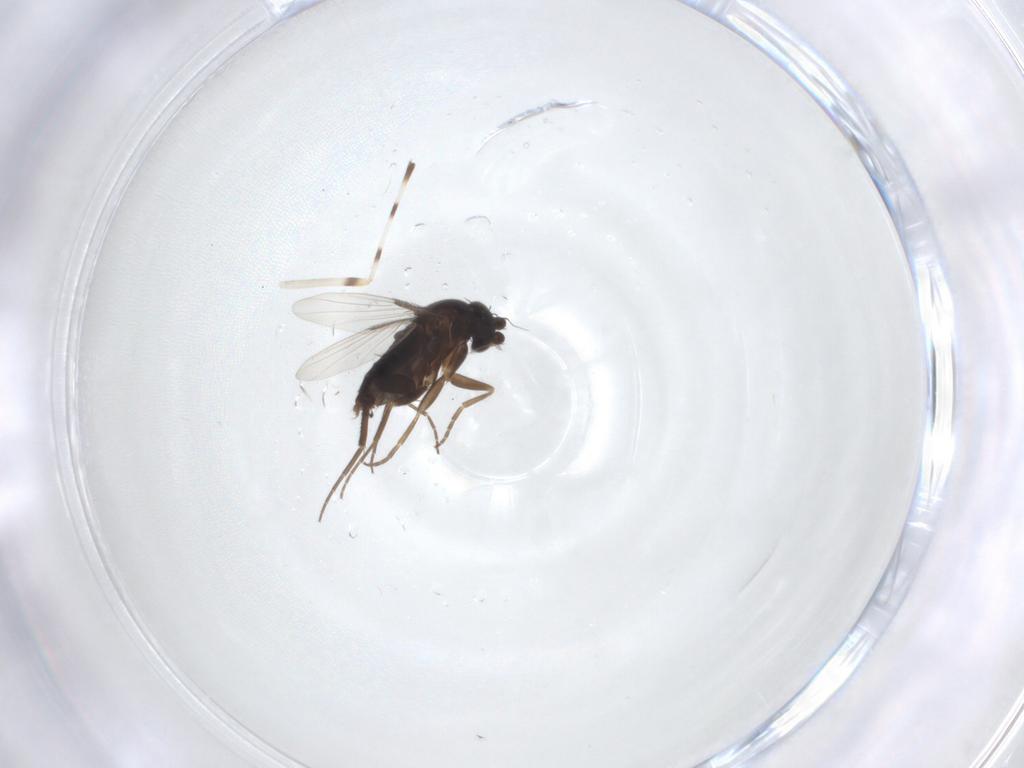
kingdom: Animalia
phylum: Arthropoda
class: Insecta
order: Diptera
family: Phoridae
